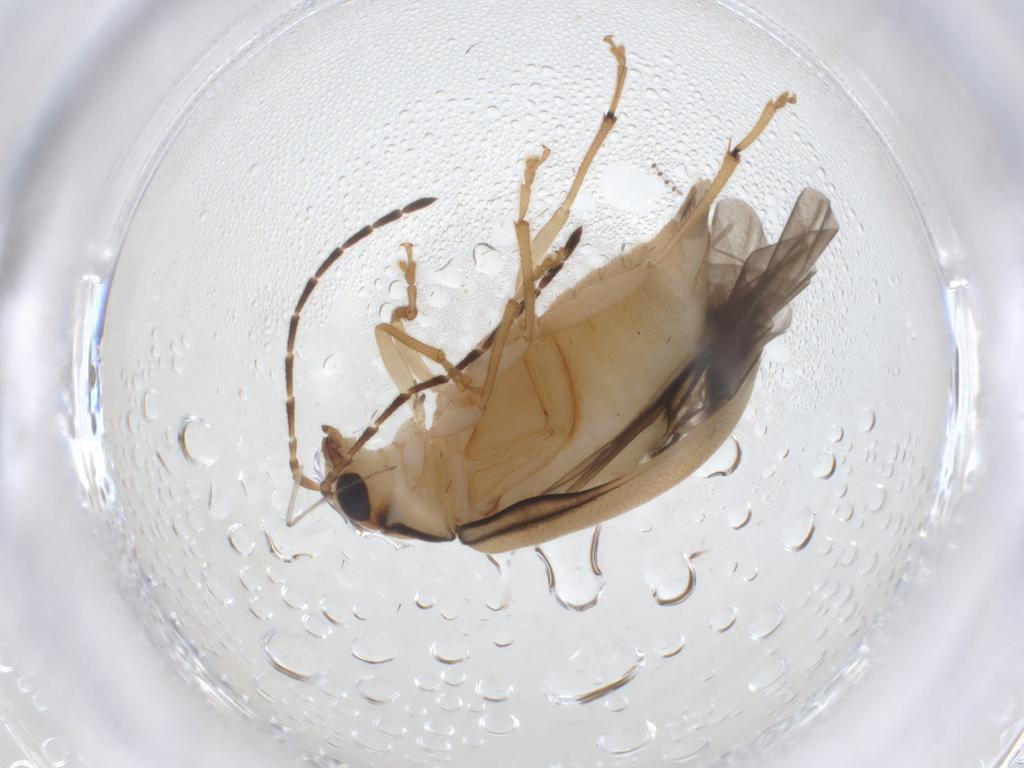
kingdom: Animalia
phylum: Arthropoda
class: Insecta
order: Coleoptera
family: Chrysomelidae
